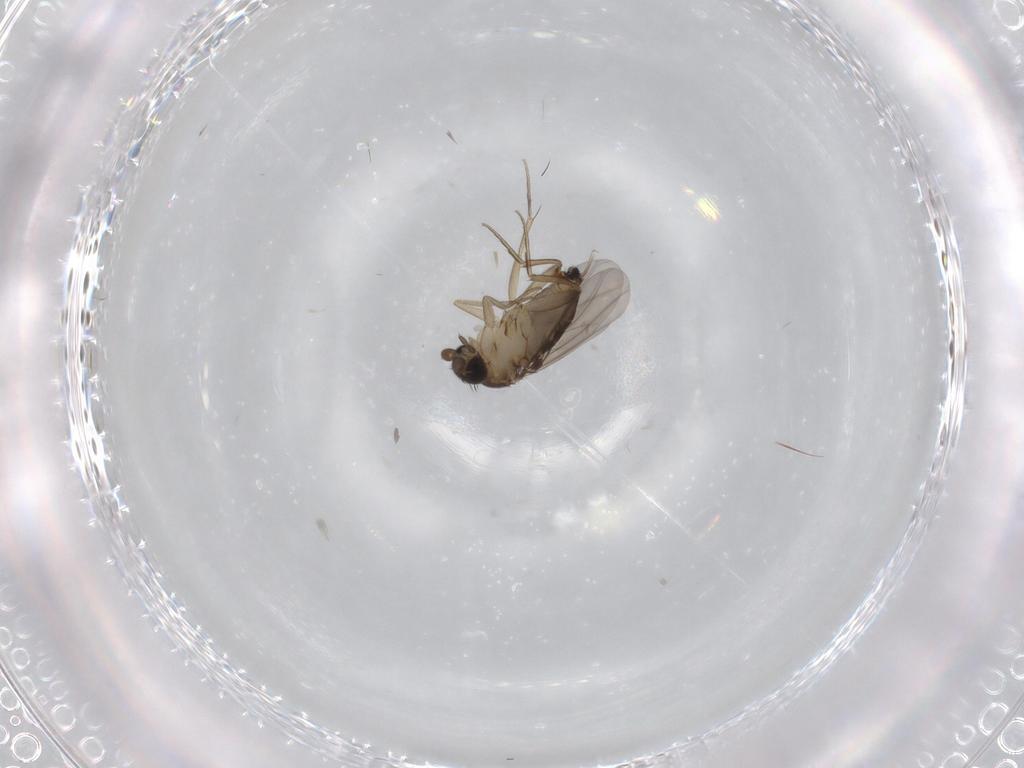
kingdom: Animalia
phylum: Arthropoda
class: Insecta
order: Diptera
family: Phoridae
